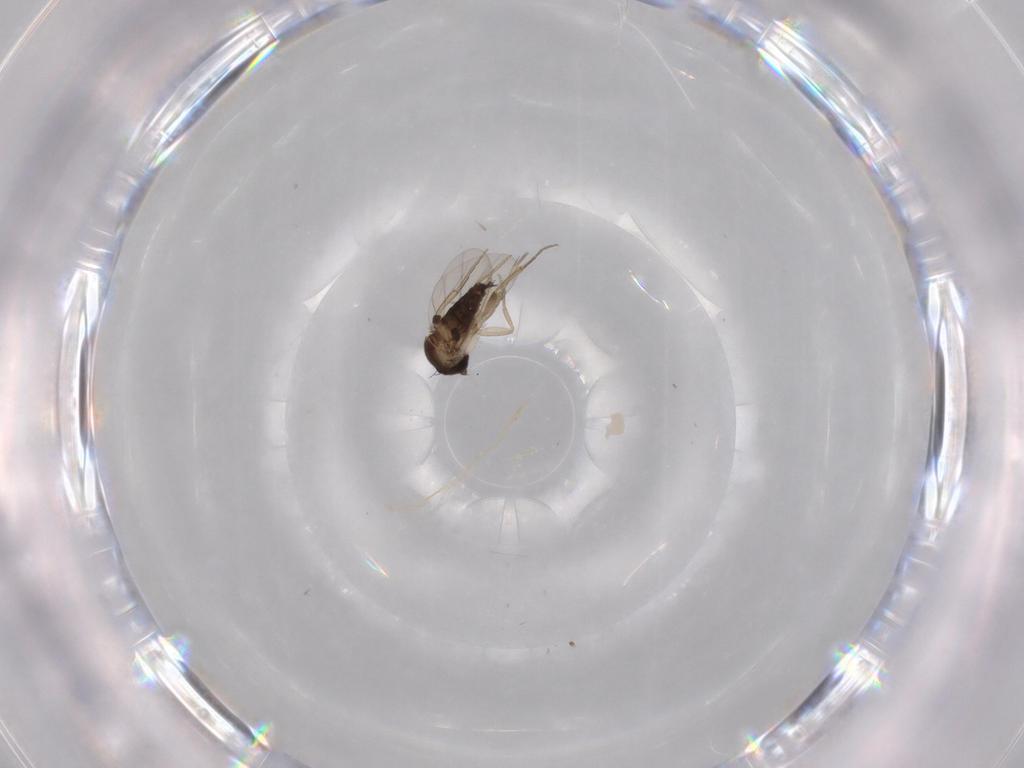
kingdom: Animalia
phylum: Arthropoda
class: Insecta
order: Diptera
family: Phoridae
